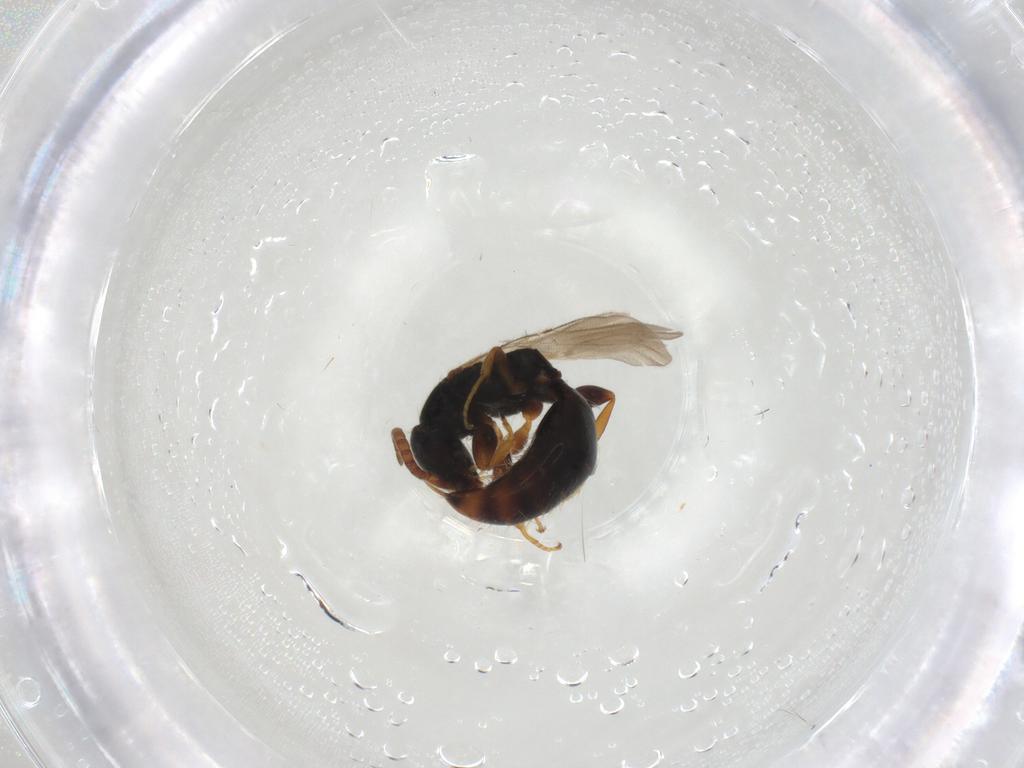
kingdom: Animalia
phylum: Arthropoda
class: Insecta
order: Hymenoptera
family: Bethylidae
